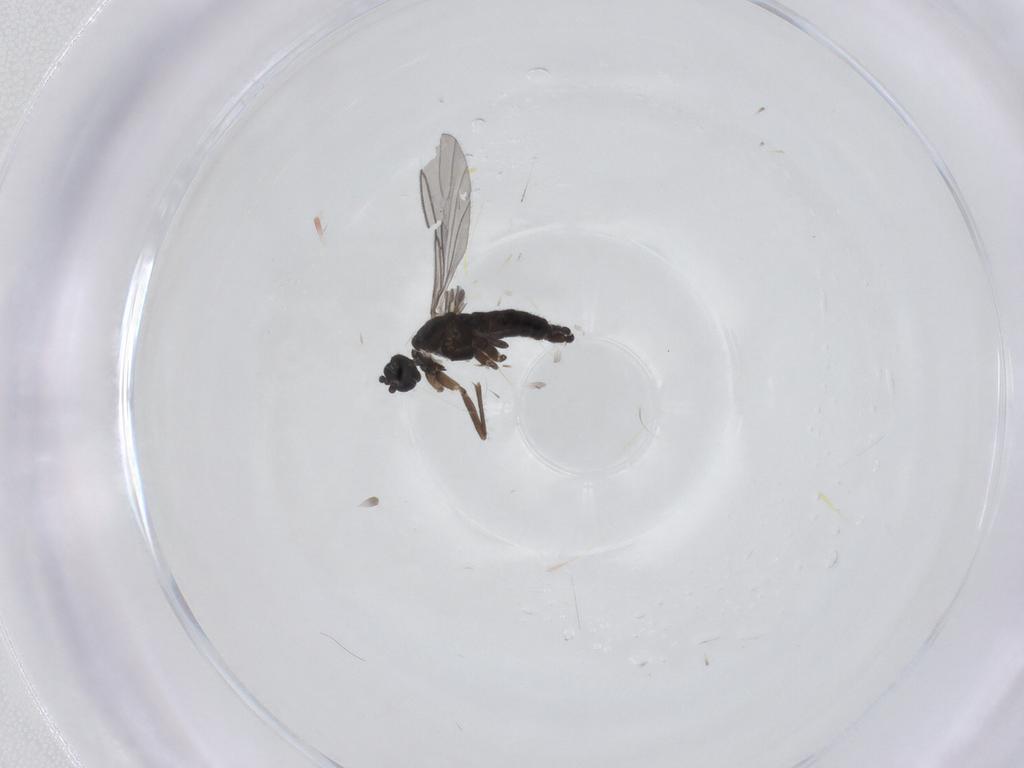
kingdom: Animalia
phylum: Arthropoda
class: Insecta
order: Diptera
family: Sciaridae
